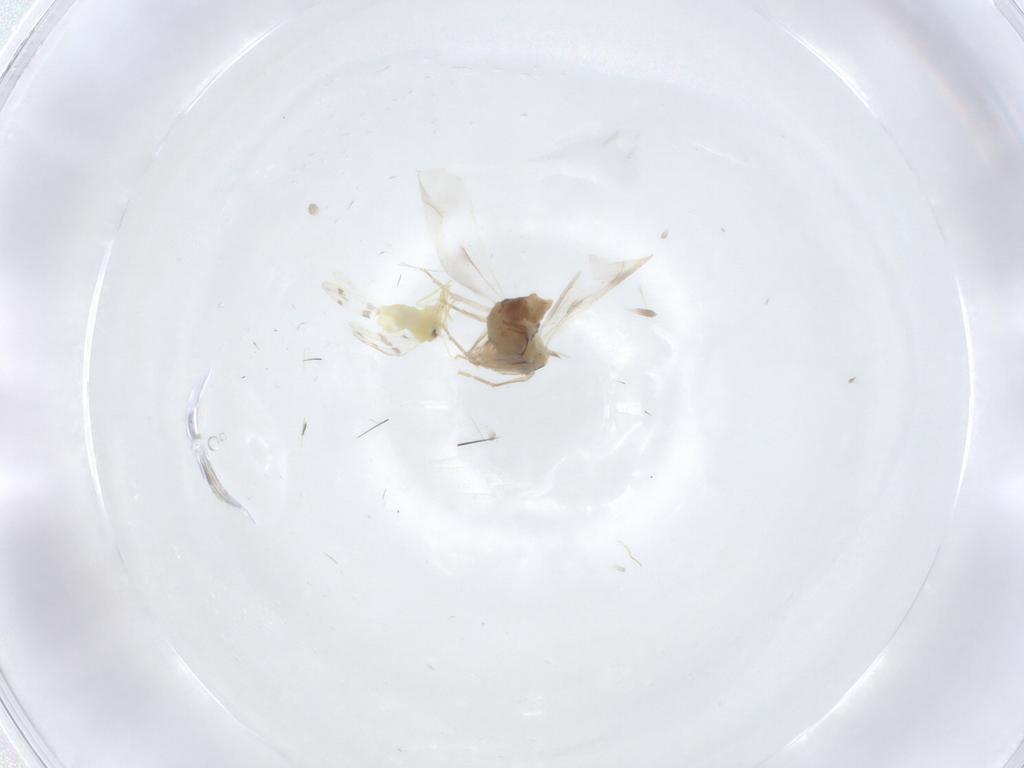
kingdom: Animalia
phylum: Arthropoda
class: Insecta
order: Hemiptera
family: Aleyrodidae
